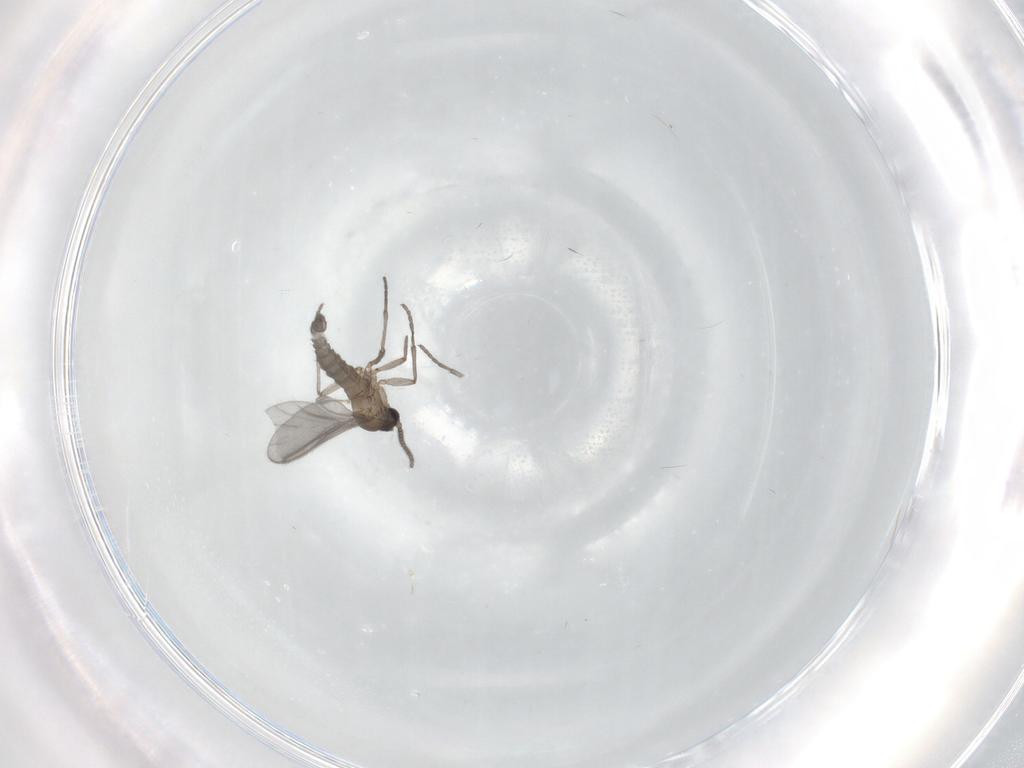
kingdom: Animalia
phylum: Arthropoda
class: Insecta
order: Diptera
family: Sciaridae
